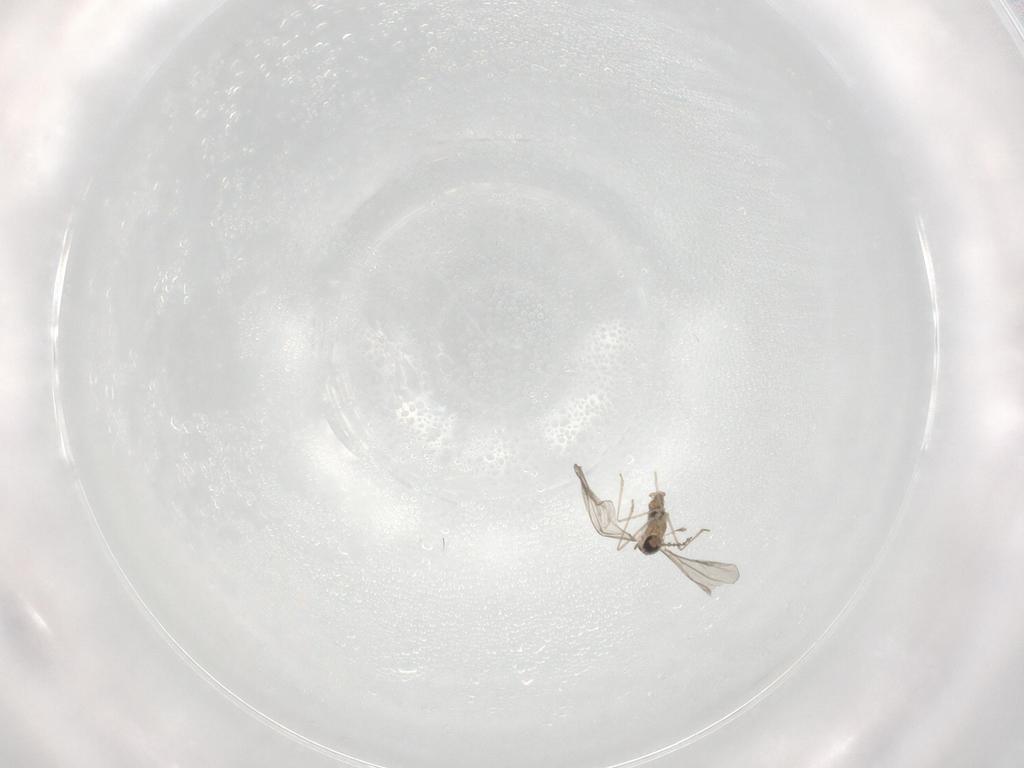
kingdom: Animalia
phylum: Arthropoda
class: Insecta
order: Diptera
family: Cecidomyiidae
